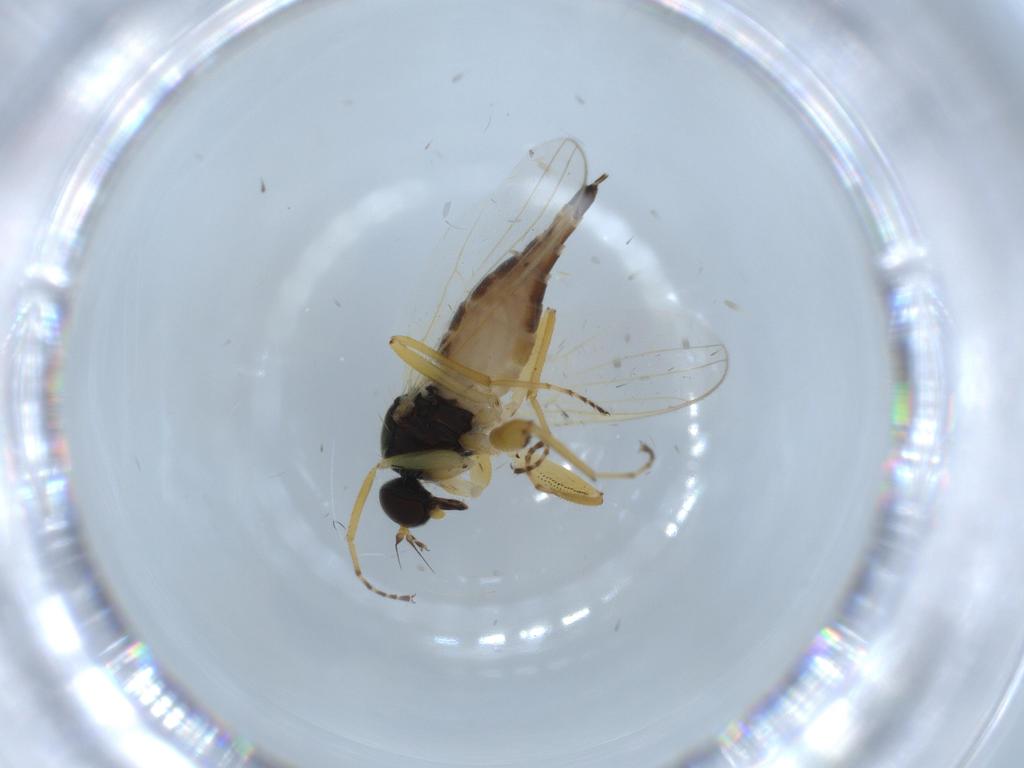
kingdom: Animalia
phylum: Arthropoda
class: Insecta
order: Diptera
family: Hybotidae
